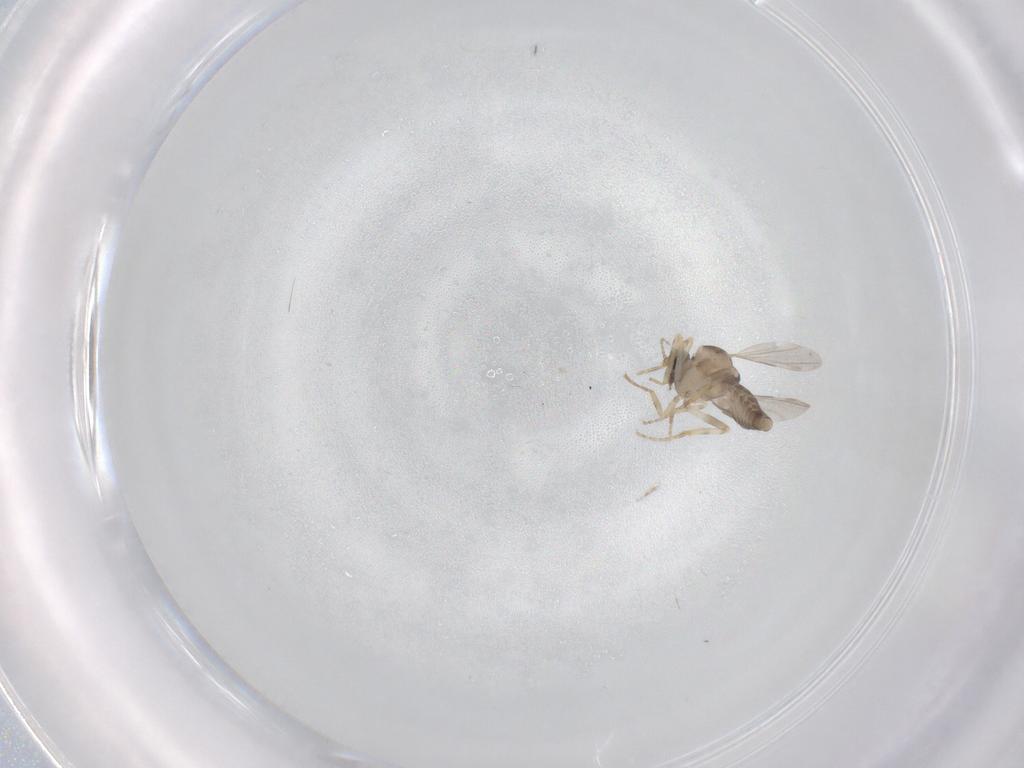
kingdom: Animalia
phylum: Arthropoda
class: Insecta
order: Diptera
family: Ceratopogonidae
